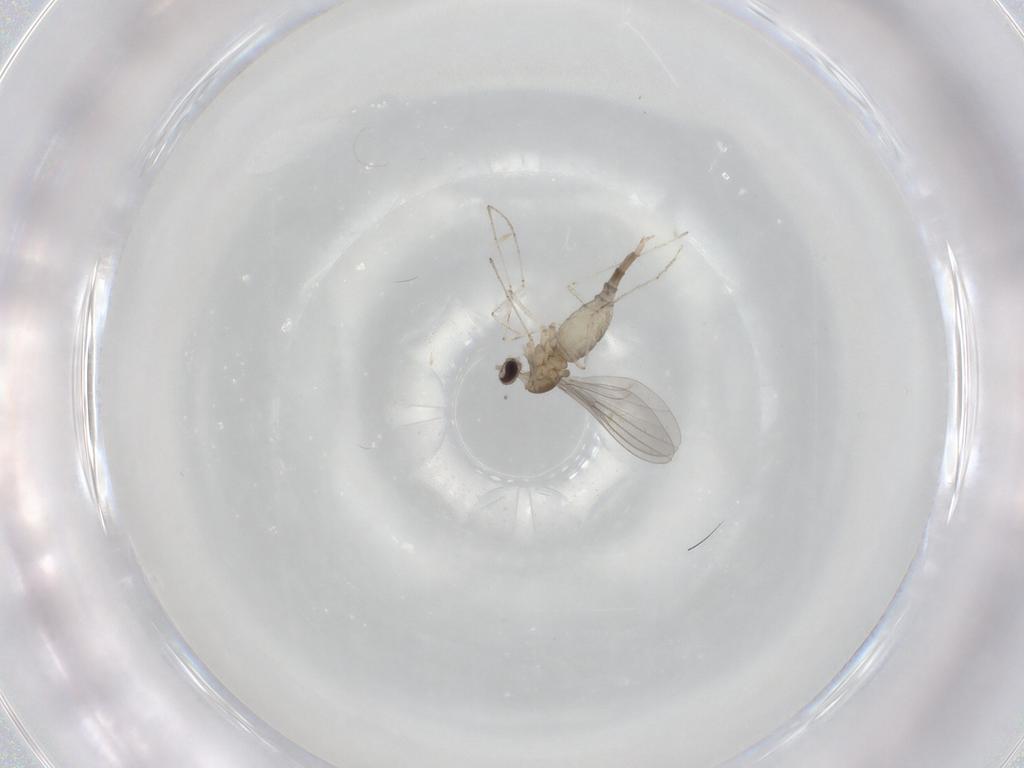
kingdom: Animalia
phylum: Arthropoda
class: Insecta
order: Diptera
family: Cecidomyiidae
